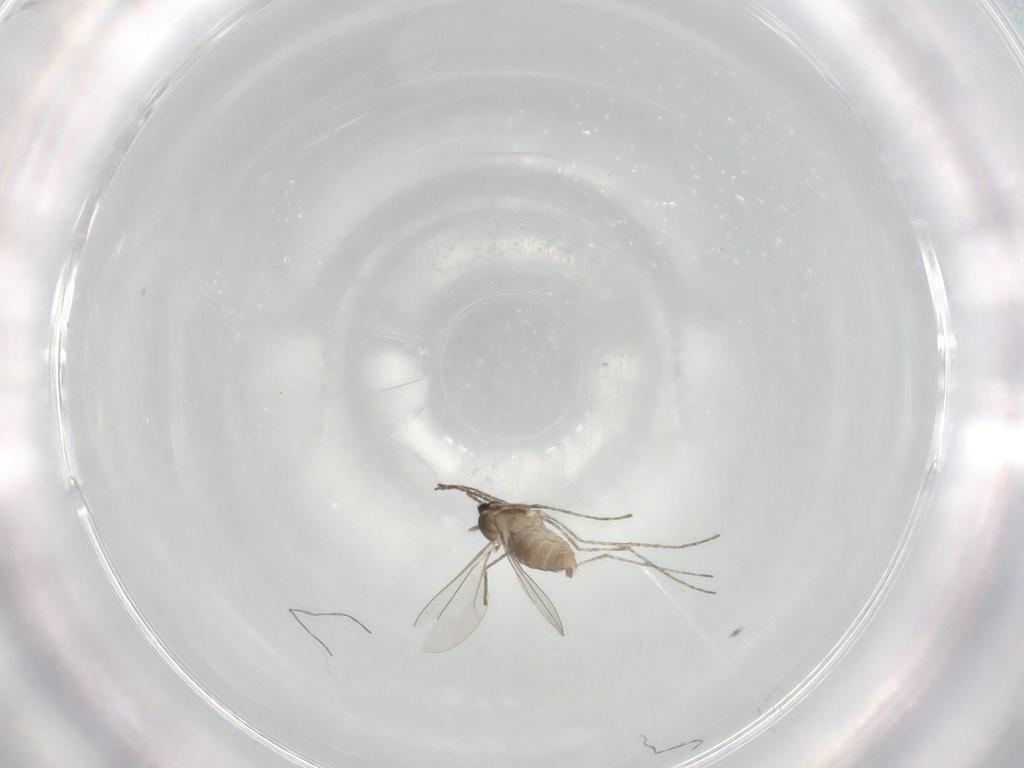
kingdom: Animalia
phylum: Arthropoda
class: Insecta
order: Diptera
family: Cecidomyiidae
